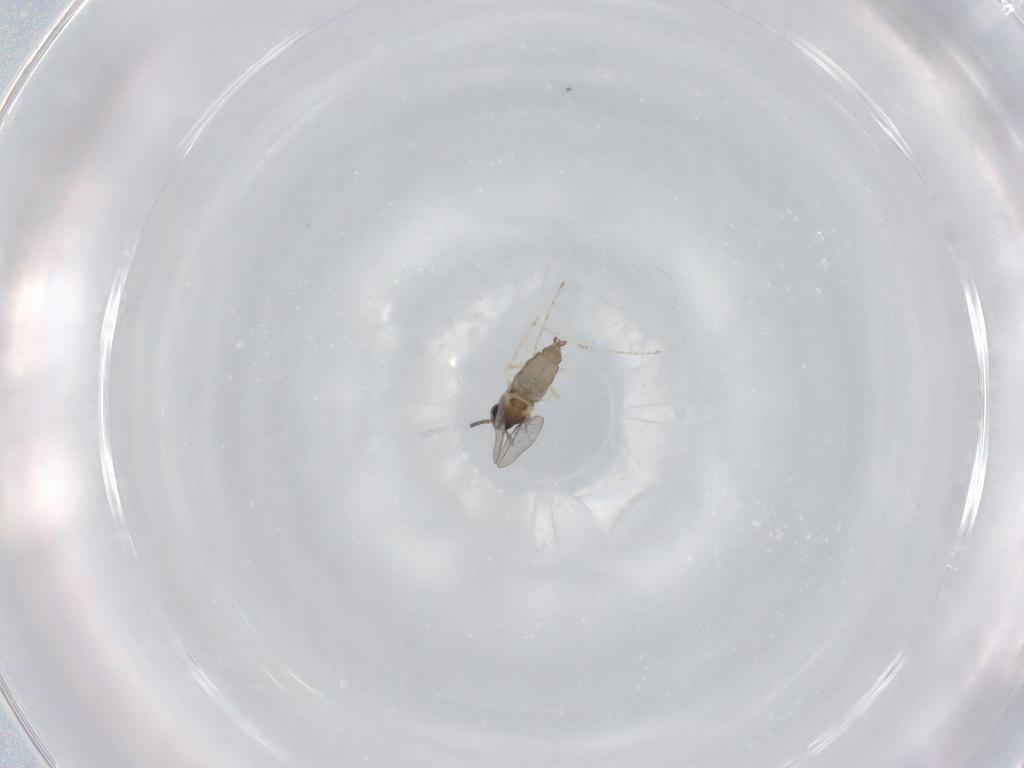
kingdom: Animalia
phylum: Arthropoda
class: Insecta
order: Diptera
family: Cecidomyiidae
